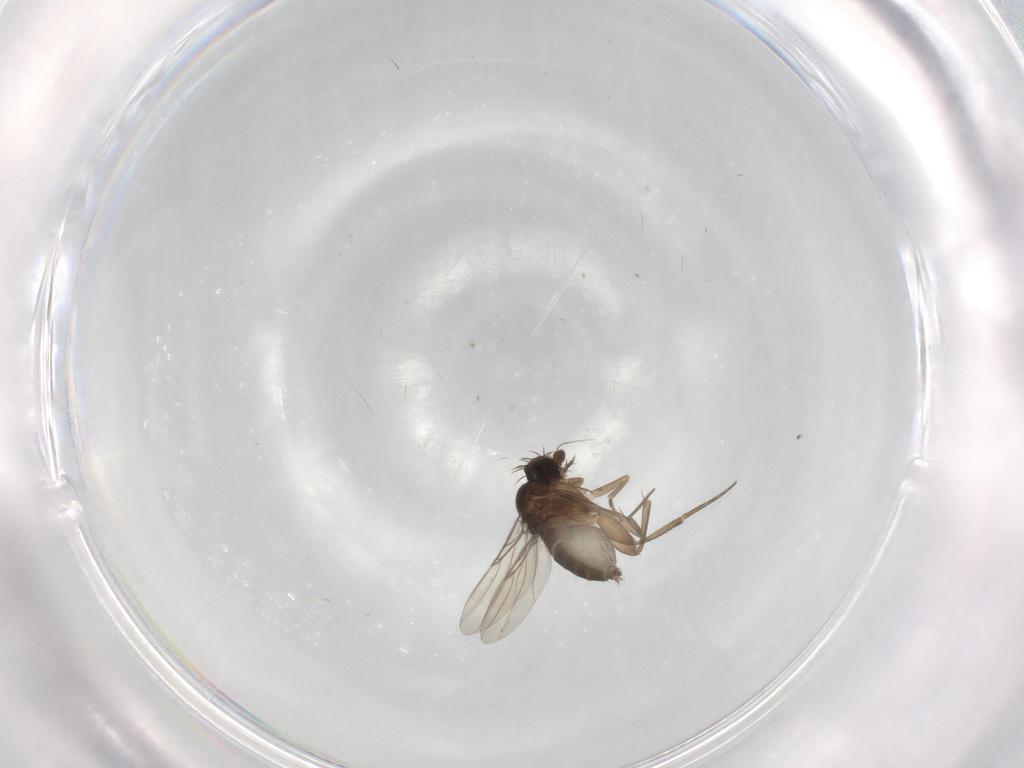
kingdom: Animalia
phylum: Arthropoda
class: Insecta
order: Diptera
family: Phoridae
